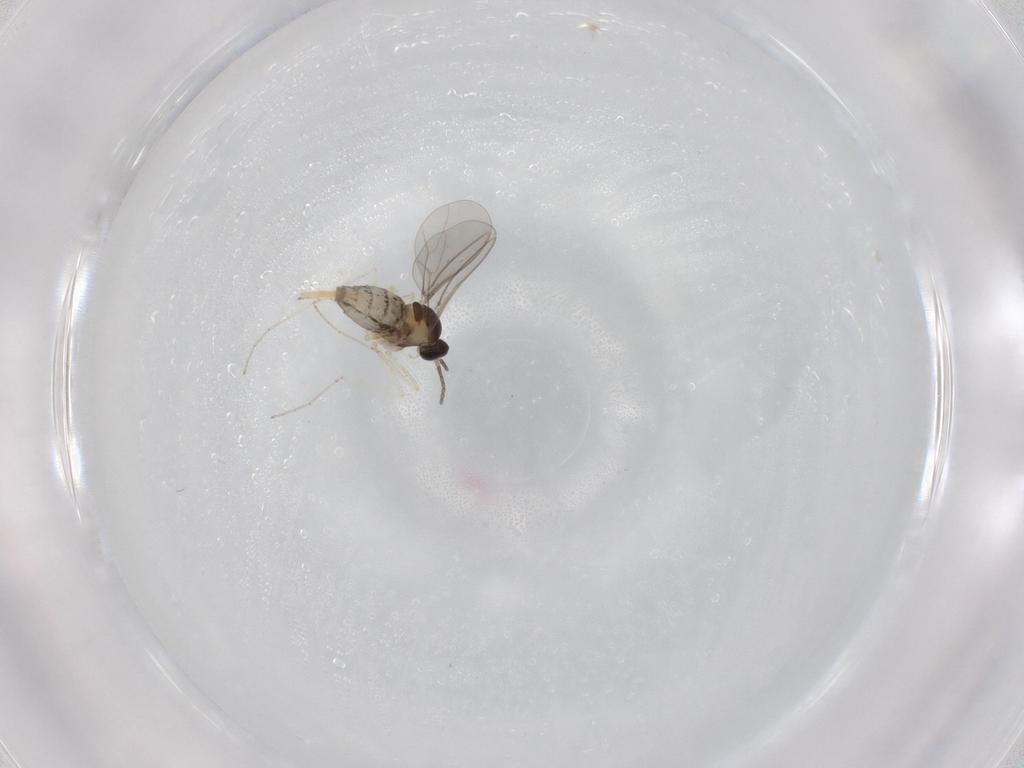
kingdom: Animalia
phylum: Arthropoda
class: Insecta
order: Diptera
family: Cecidomyiidae
